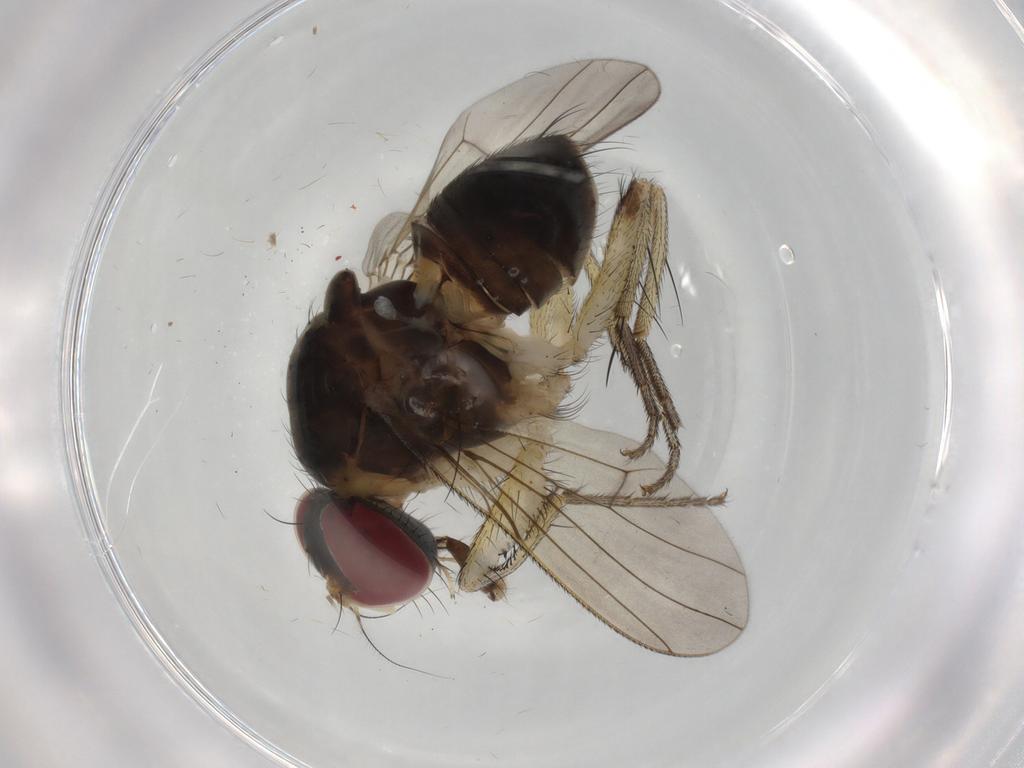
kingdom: Animalia
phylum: Arthropoda
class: Insecta
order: Diptera
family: Muscidae
